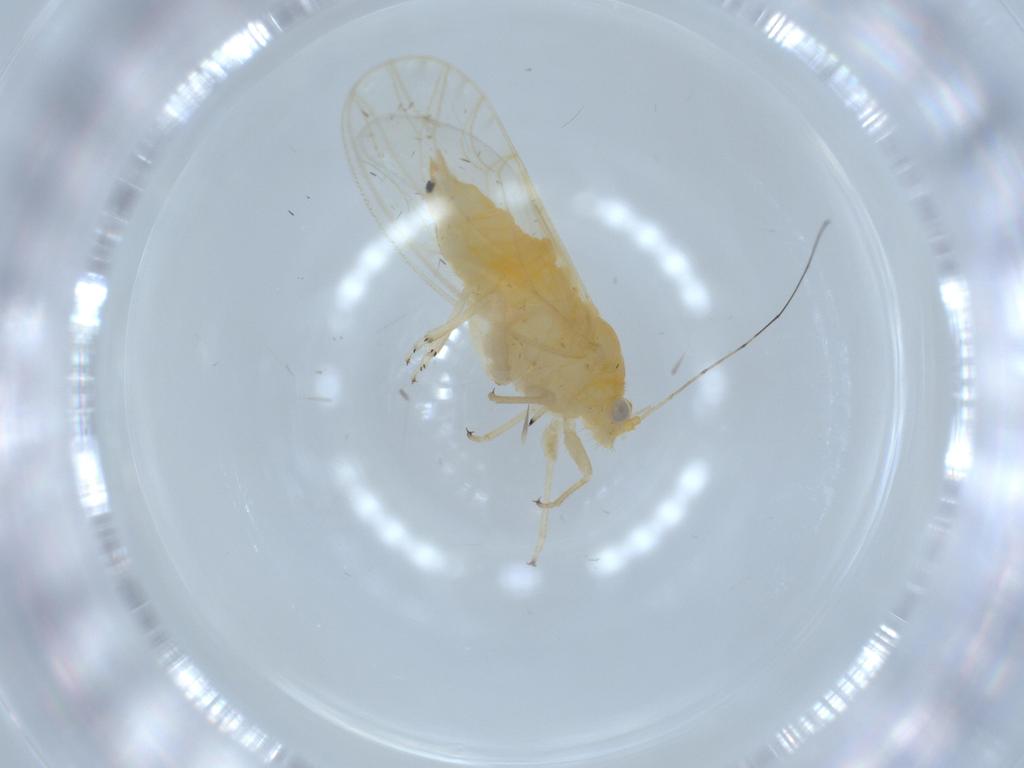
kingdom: Animalia
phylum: Arthropoda
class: Insecta
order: Hemiptera
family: Psyllidae
